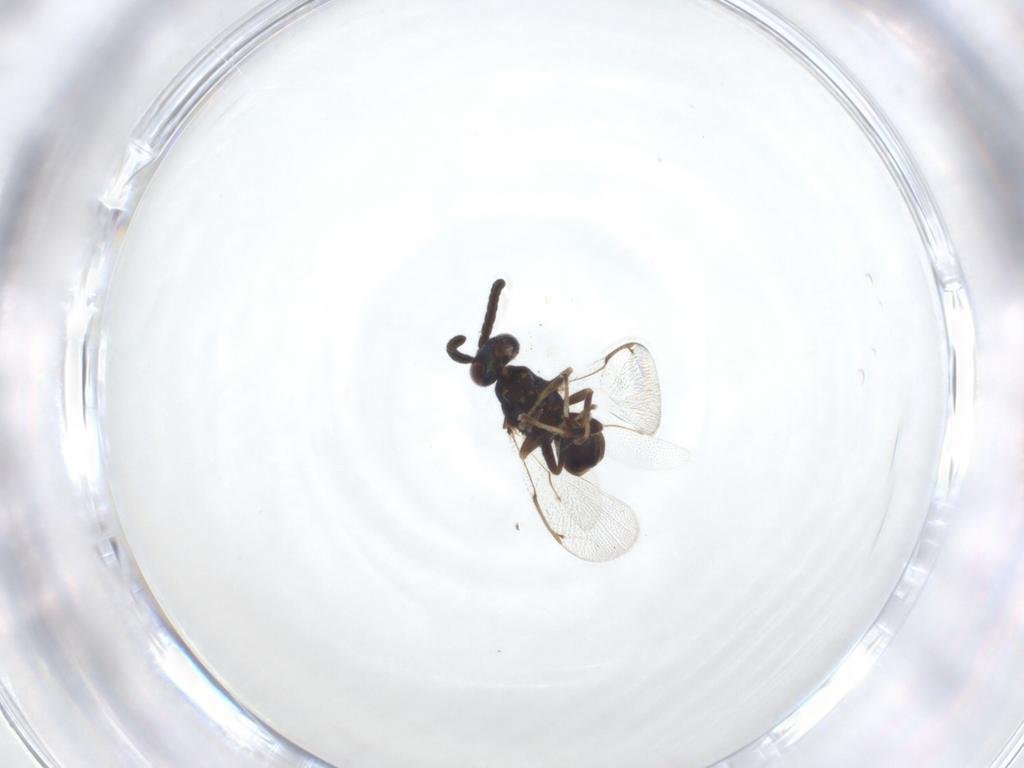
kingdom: Animalia
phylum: Arthropoda
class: Insecta
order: Hymenoptera
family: Torymidae
